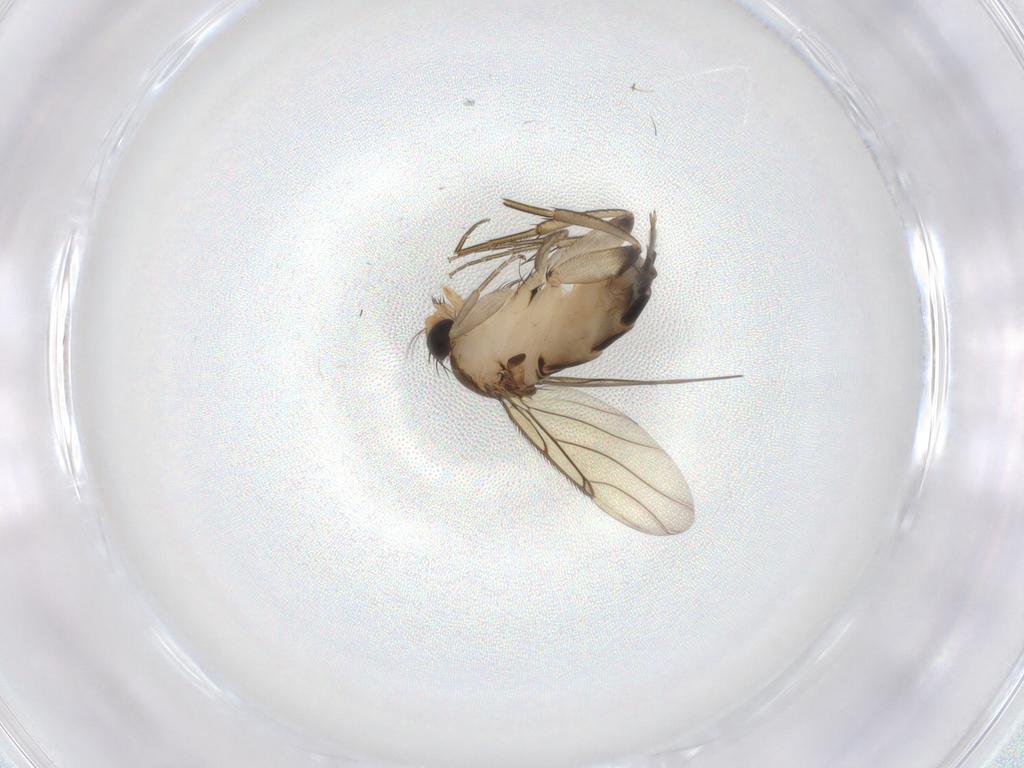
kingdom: Animalia
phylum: Arthropoda
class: Insecta
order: Diptera
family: Phoridae
